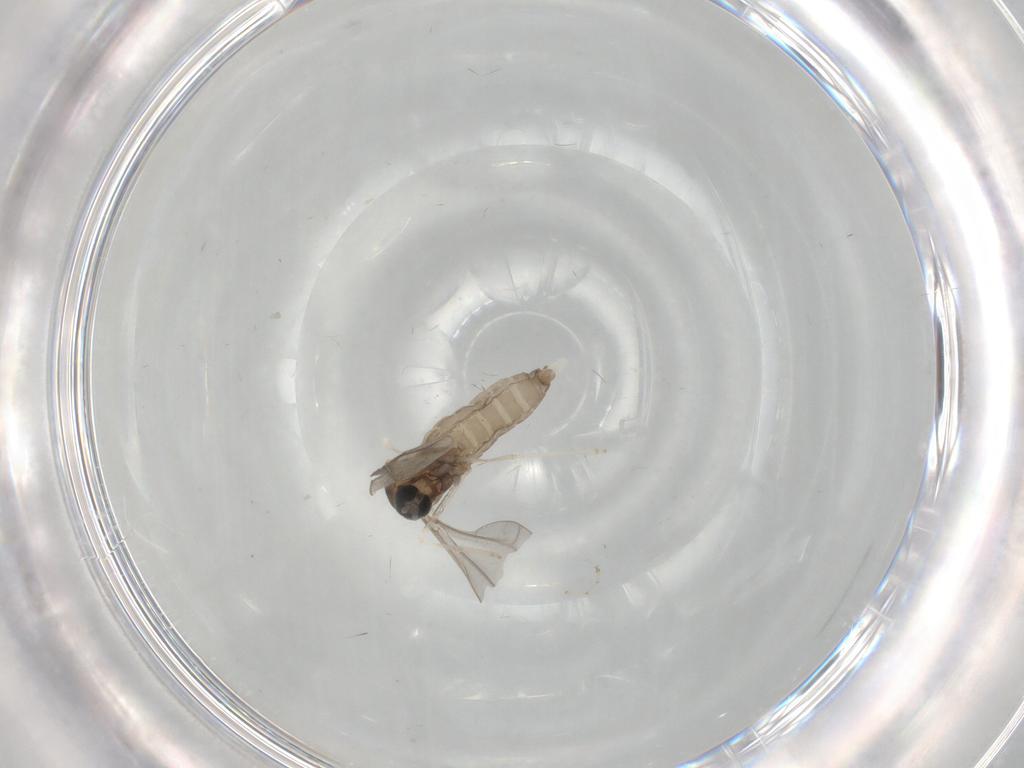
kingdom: Animalia
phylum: Arthropoda
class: Insecta
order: Diptera
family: Cecidomyiidae
